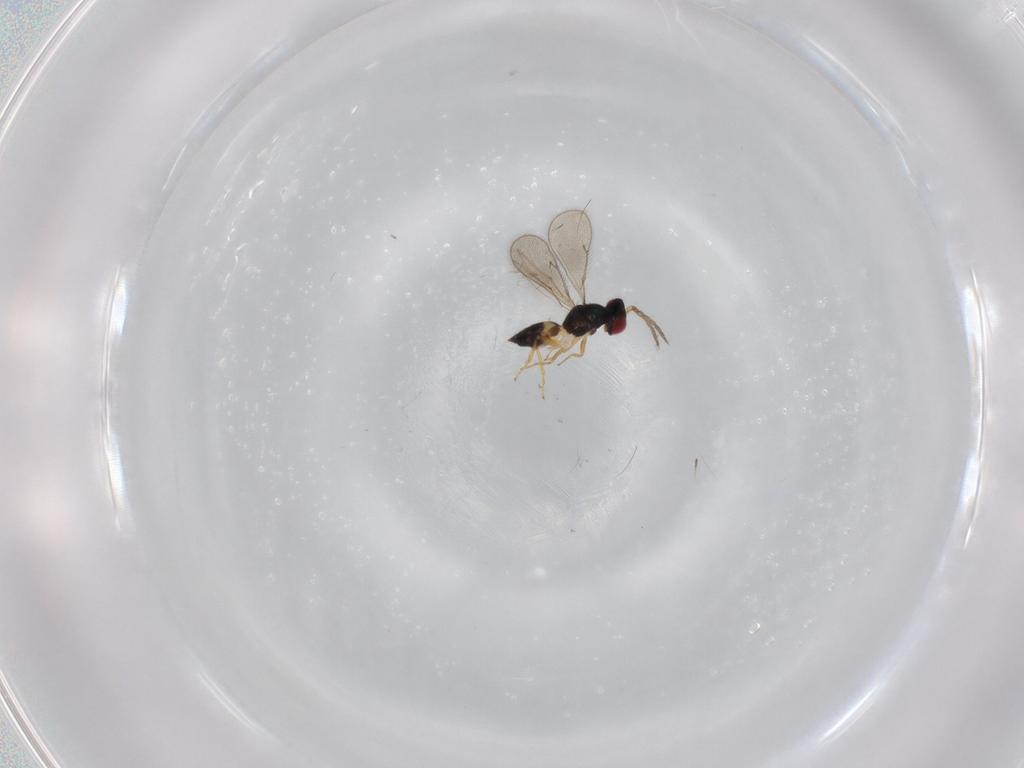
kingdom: Animalia
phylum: Arthropoda
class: Insecta
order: Hymenoptera
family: Eulophidae
